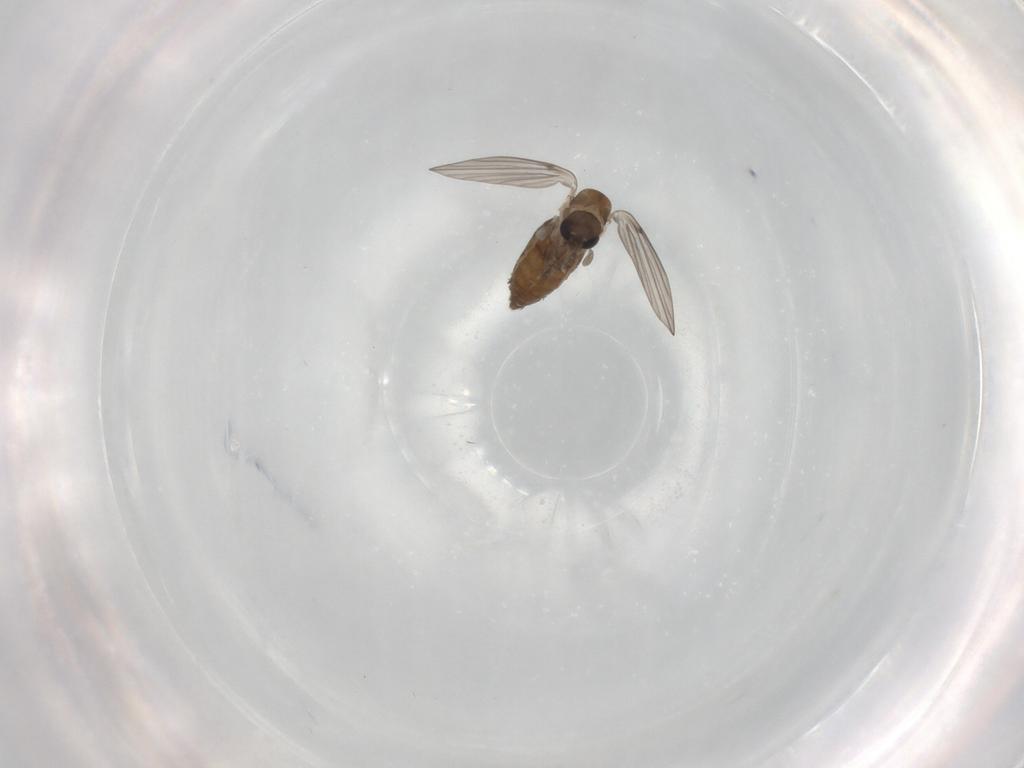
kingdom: Animalia
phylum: Arthropoda
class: Insecta
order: Diptera
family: Psychodidae
